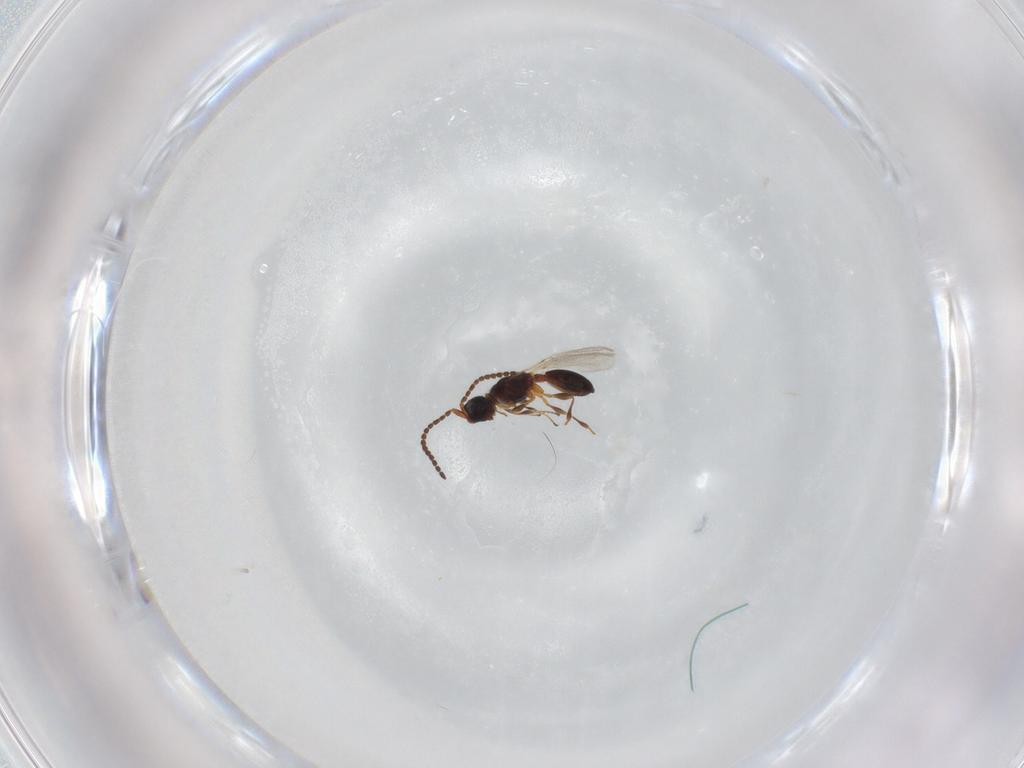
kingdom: Animalia
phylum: Arthropoda
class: Insecta
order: Hymenoptera
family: Diapriidae
